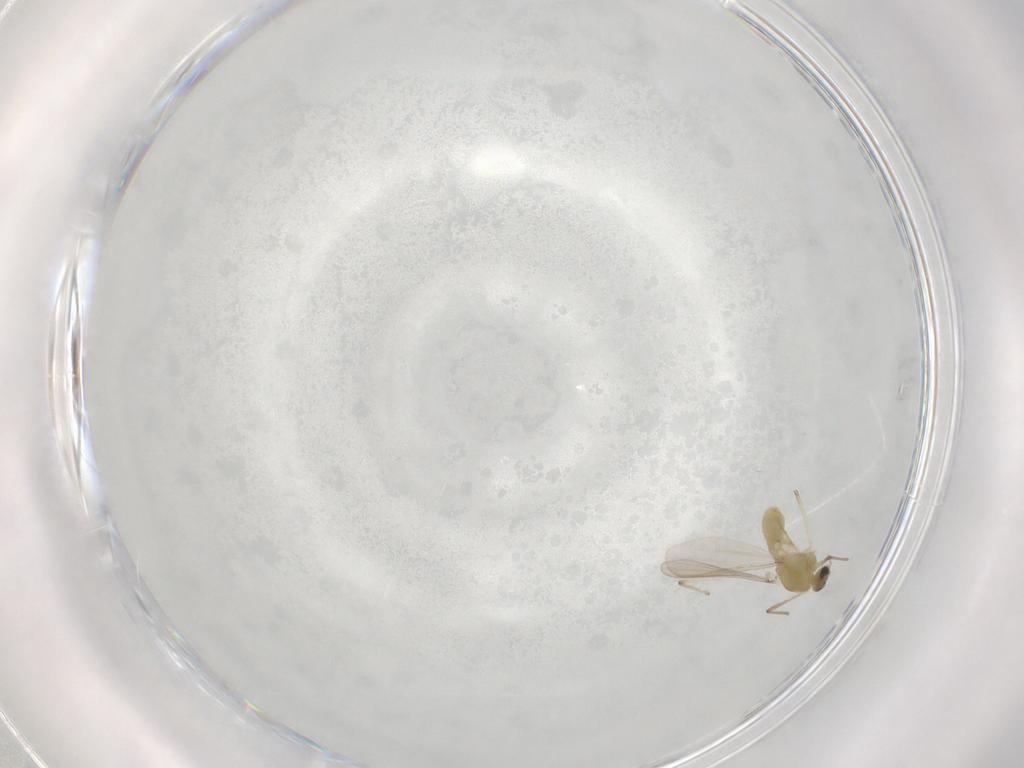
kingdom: Animalia
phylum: Arthropoda
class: Insecta
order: Diptera
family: Chironomidae
